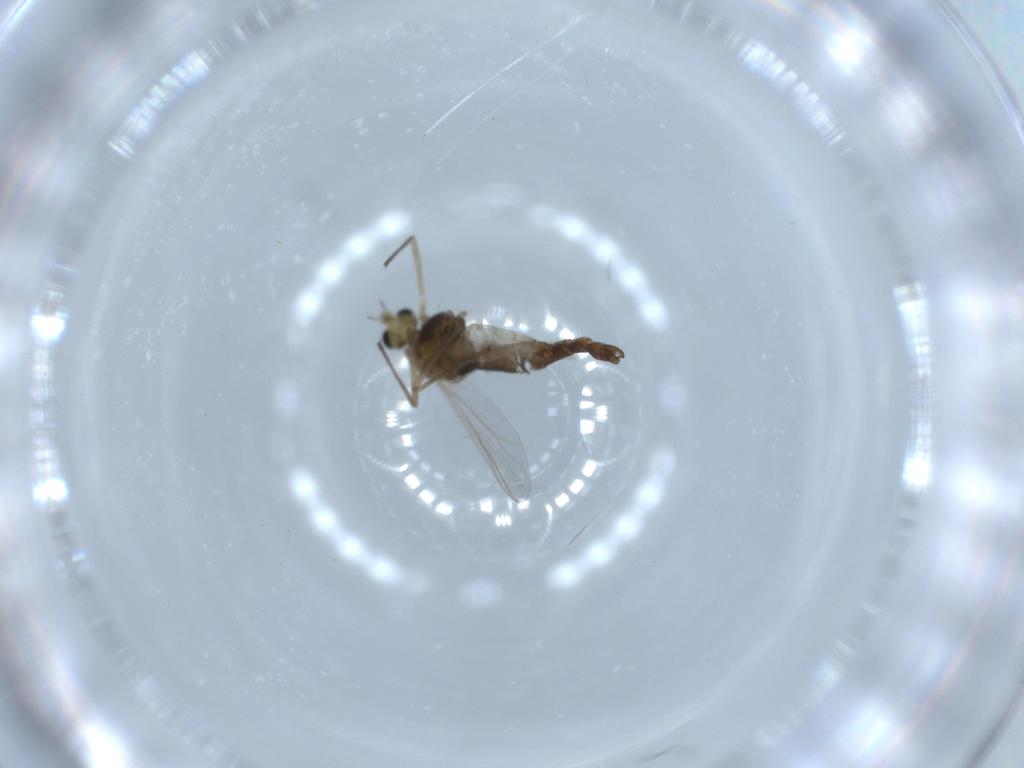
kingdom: Animalia
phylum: Arthropoda
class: Insecta
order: Diptera
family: Chironomidae
